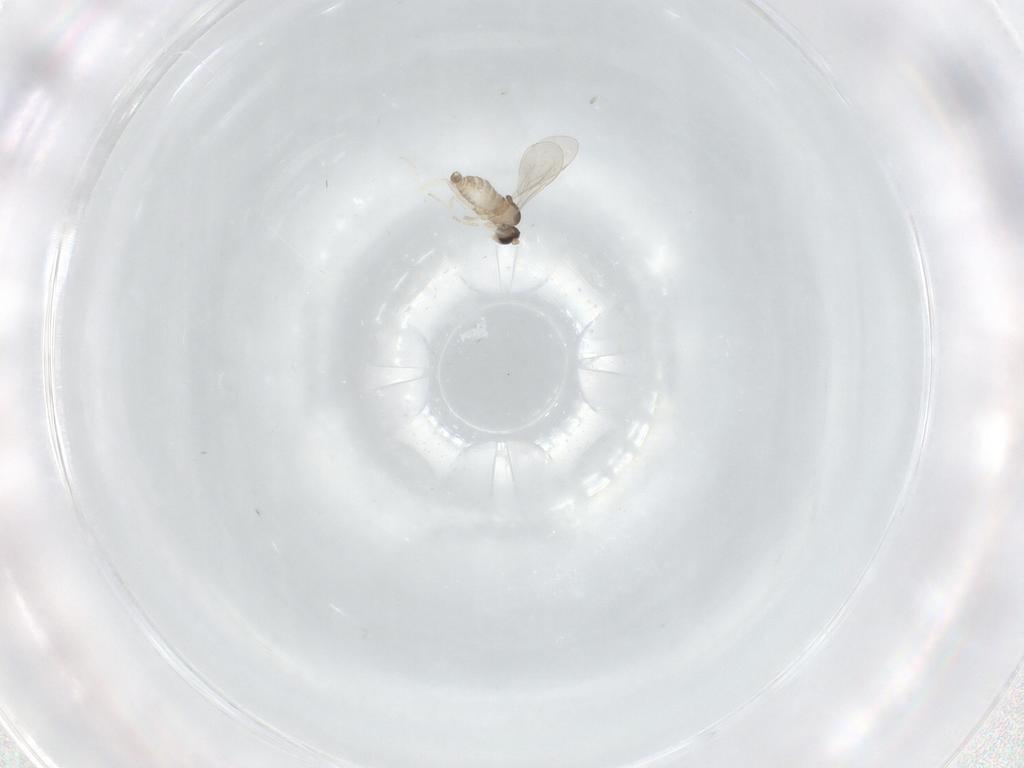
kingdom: Animalia
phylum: Arthropoda
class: Insecta
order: Diptera
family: Cecidomyiidae
